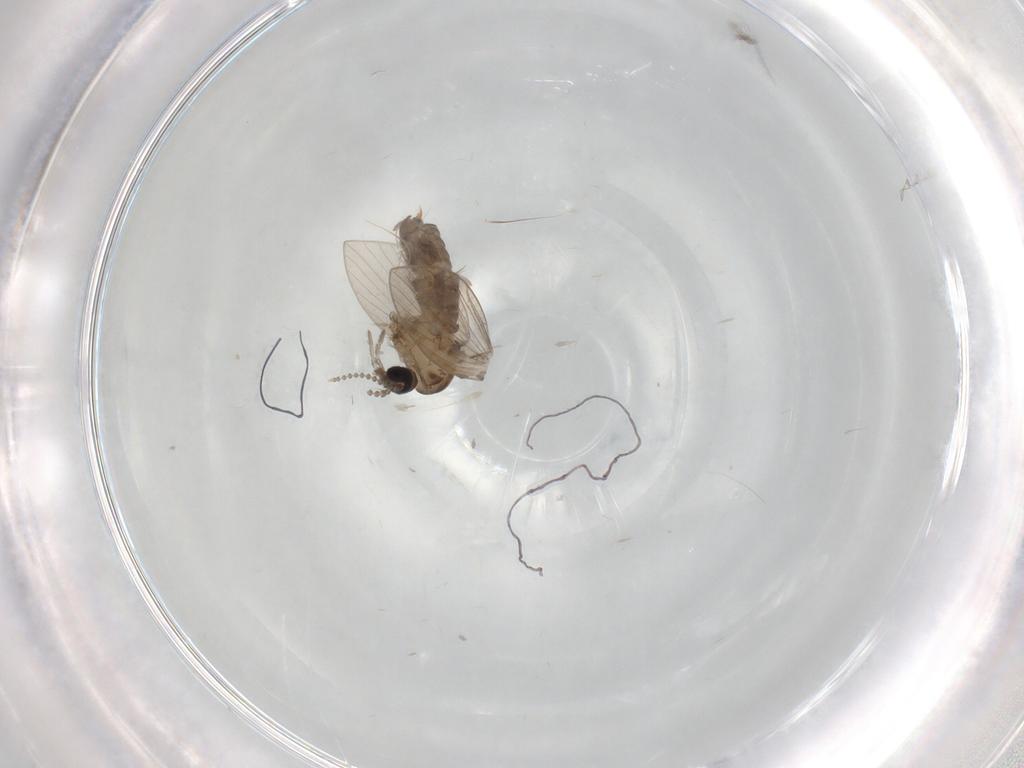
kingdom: Animalia
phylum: Arthropoda
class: Insecta
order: Diptera
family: Psychodidae
